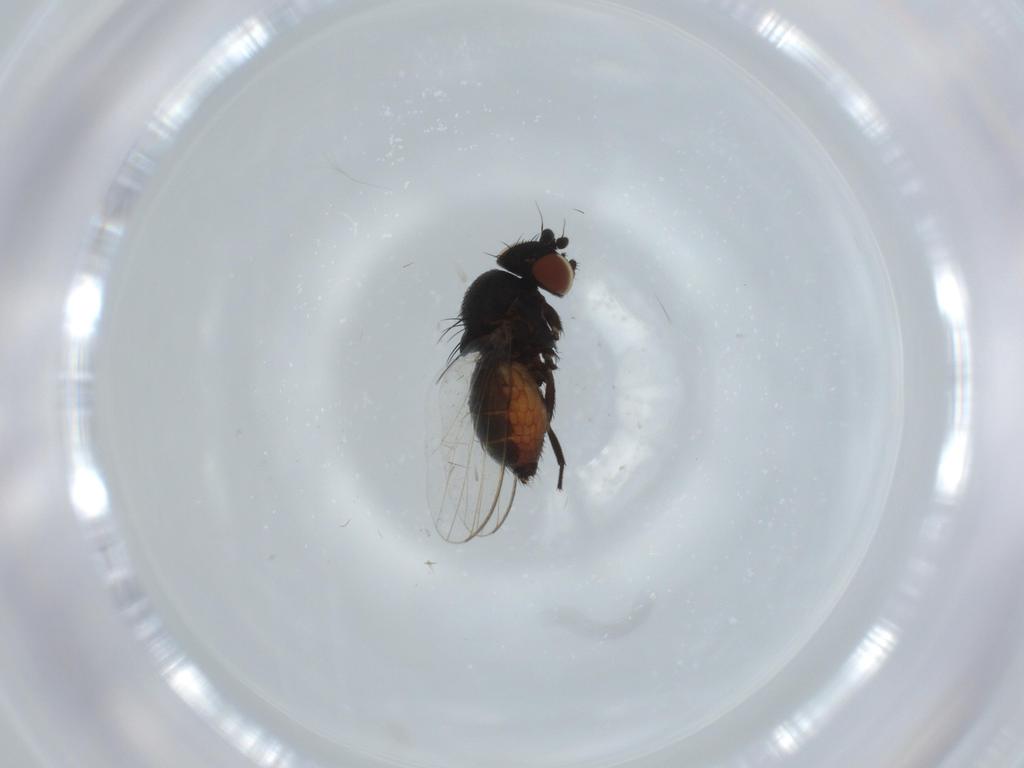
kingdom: Animalia
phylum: Arthropoda
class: Insecta
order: Diptera
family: Milichiidae
